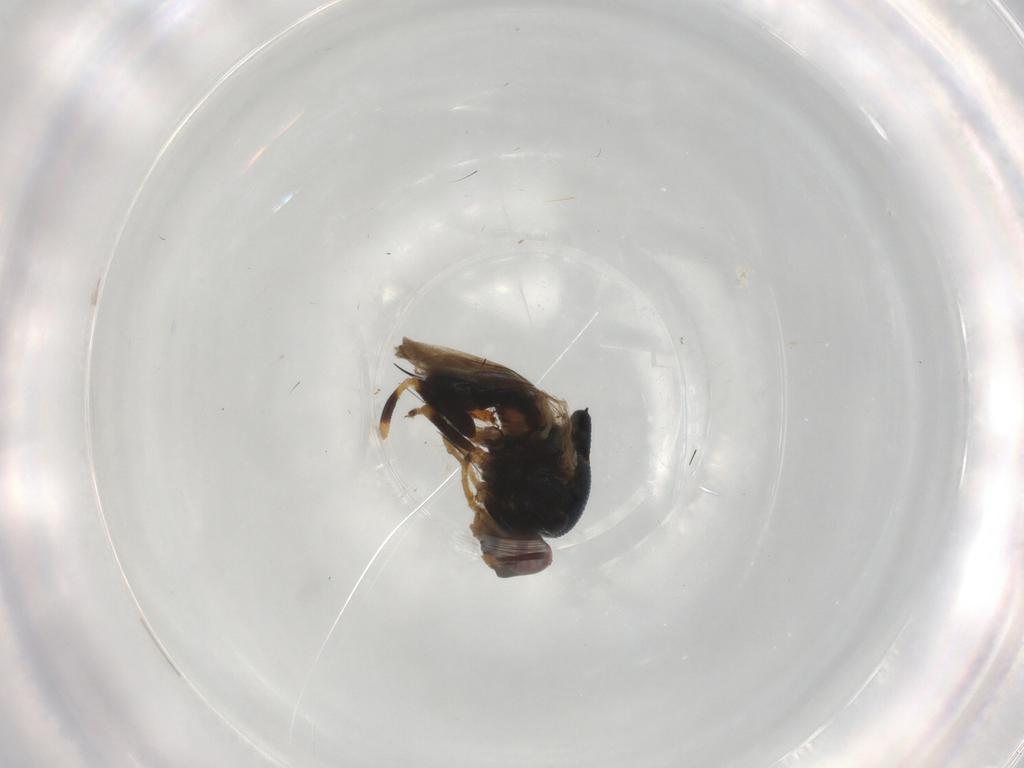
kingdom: Animalia
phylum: Arthropoda
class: Insecta
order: Diptera
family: Chloropidae
